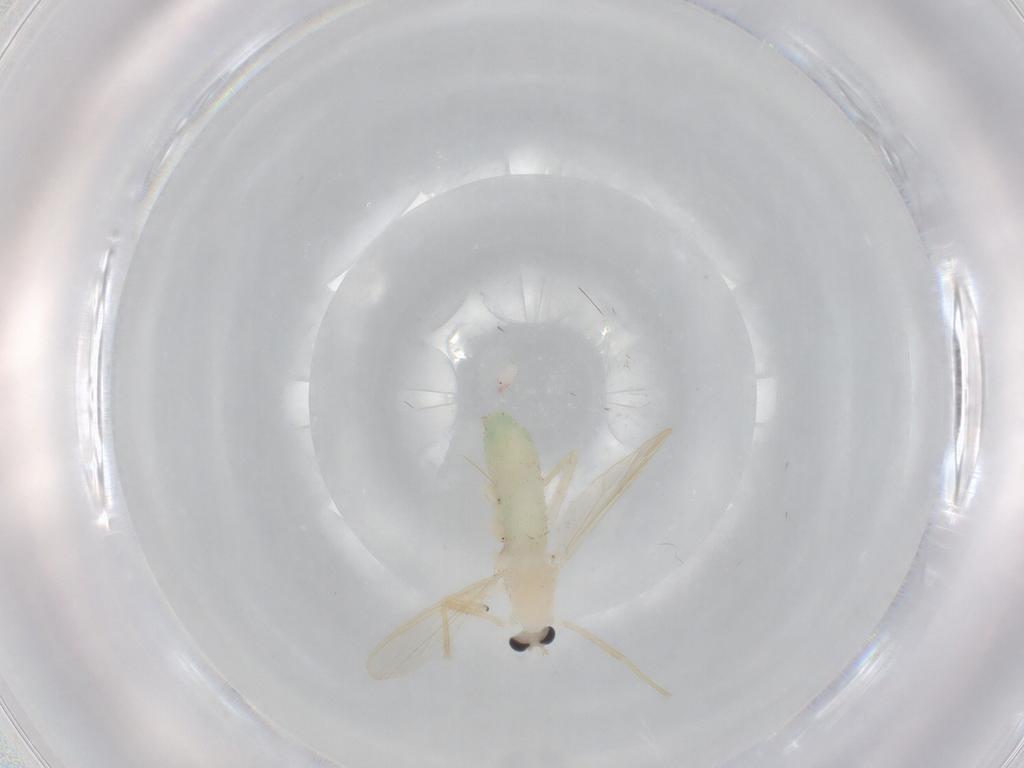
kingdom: Animalia
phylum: Arthropoda
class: Insecta
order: Diptera
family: Chironomidae
